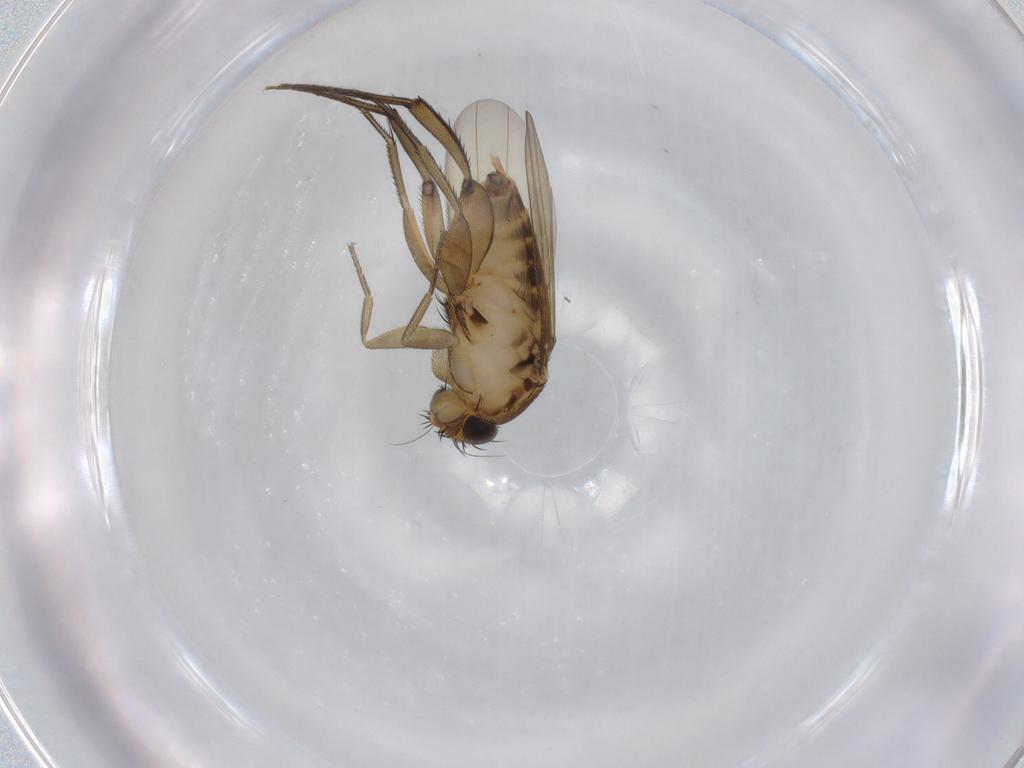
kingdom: Animalia
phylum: Arthropoda
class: Insecta
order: Diptera
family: Phoridae
